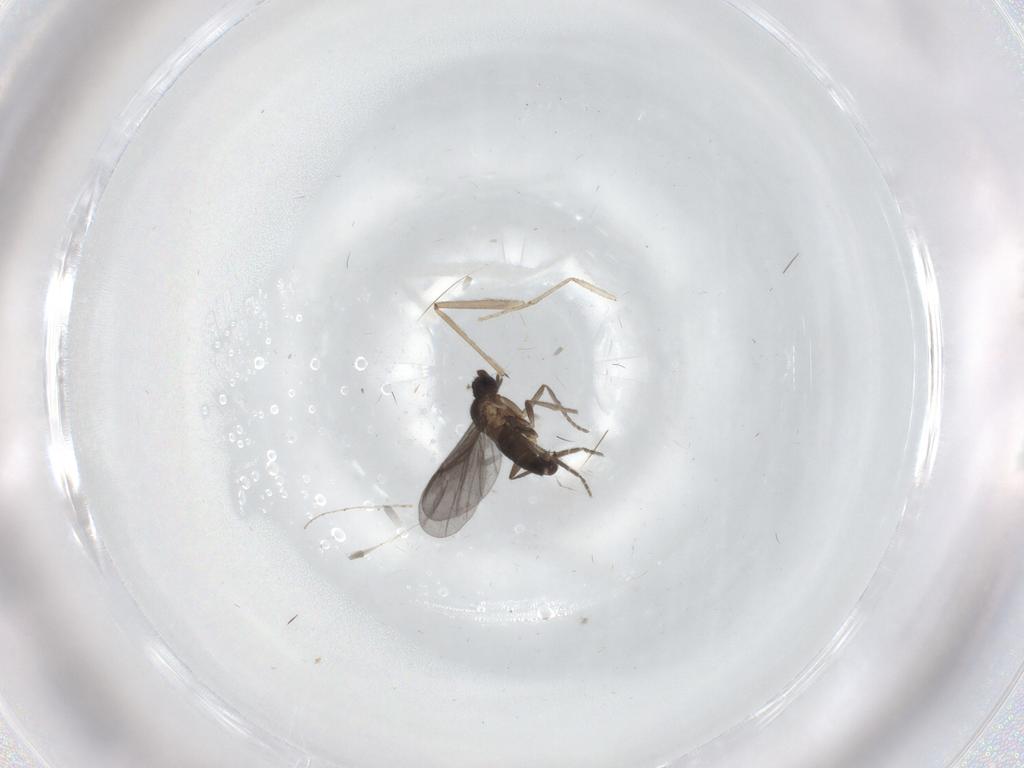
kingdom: Animalia
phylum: Arthropoda
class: Insecta
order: Diptera
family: Phoridae
